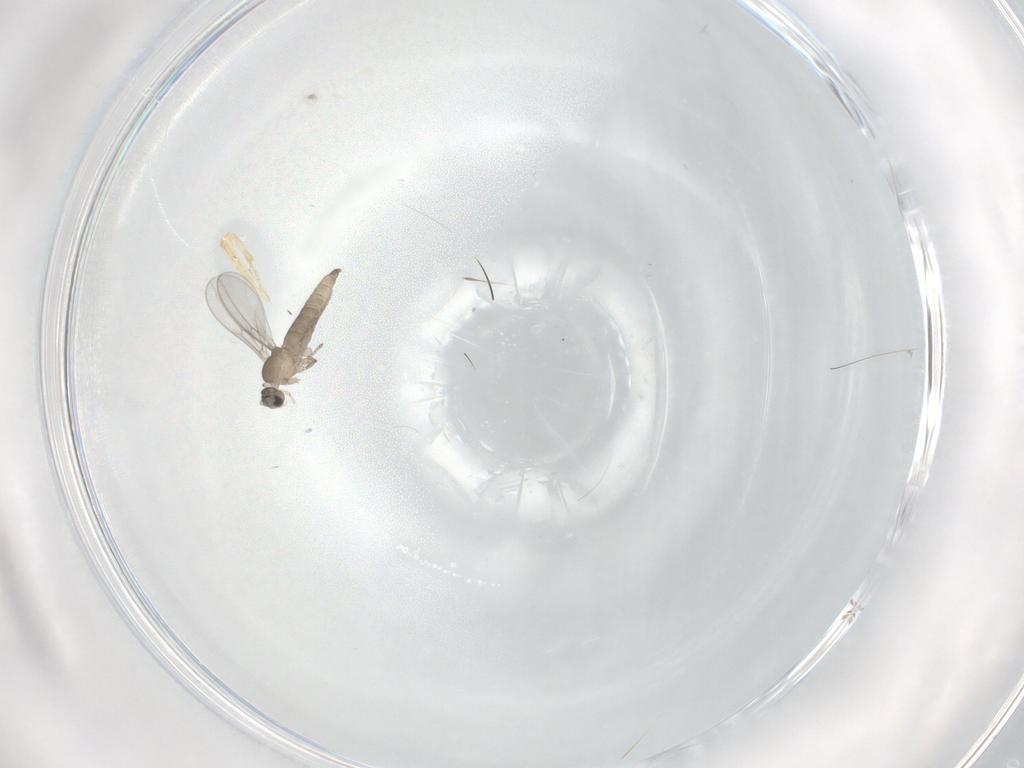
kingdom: Animalia
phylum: Arthropoda
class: Insecta
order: Diptera
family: Cecidomyiidae
